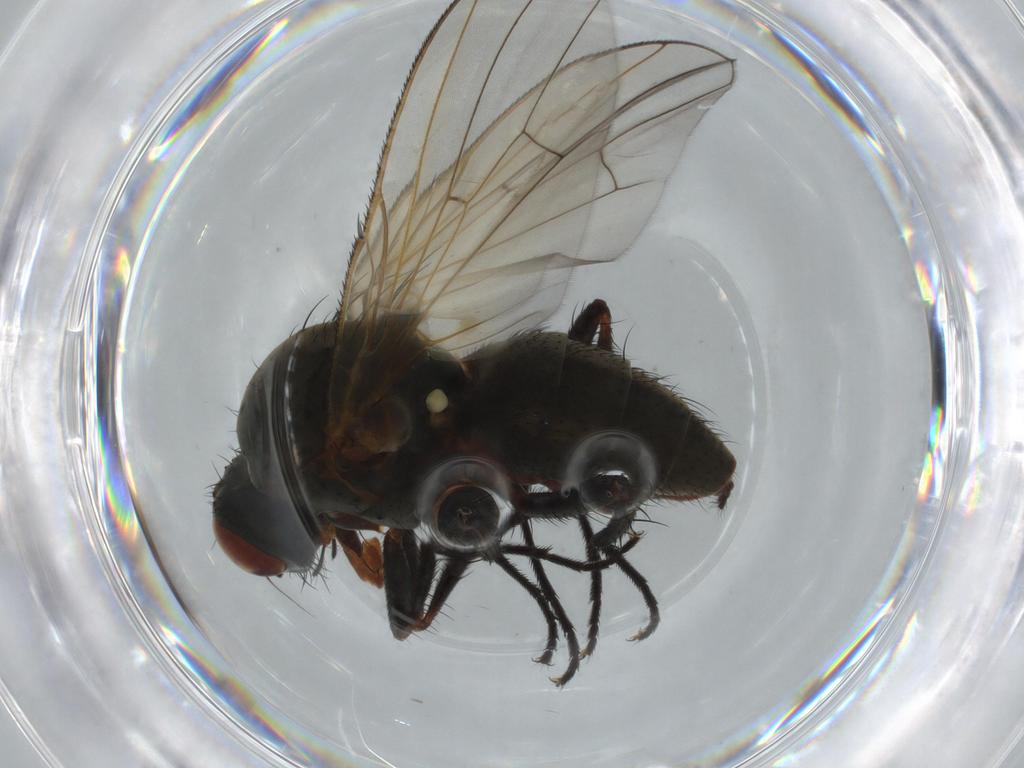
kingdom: Animalia
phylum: Arthropoda
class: Insecta
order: Diptera
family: Anthomyiidae
